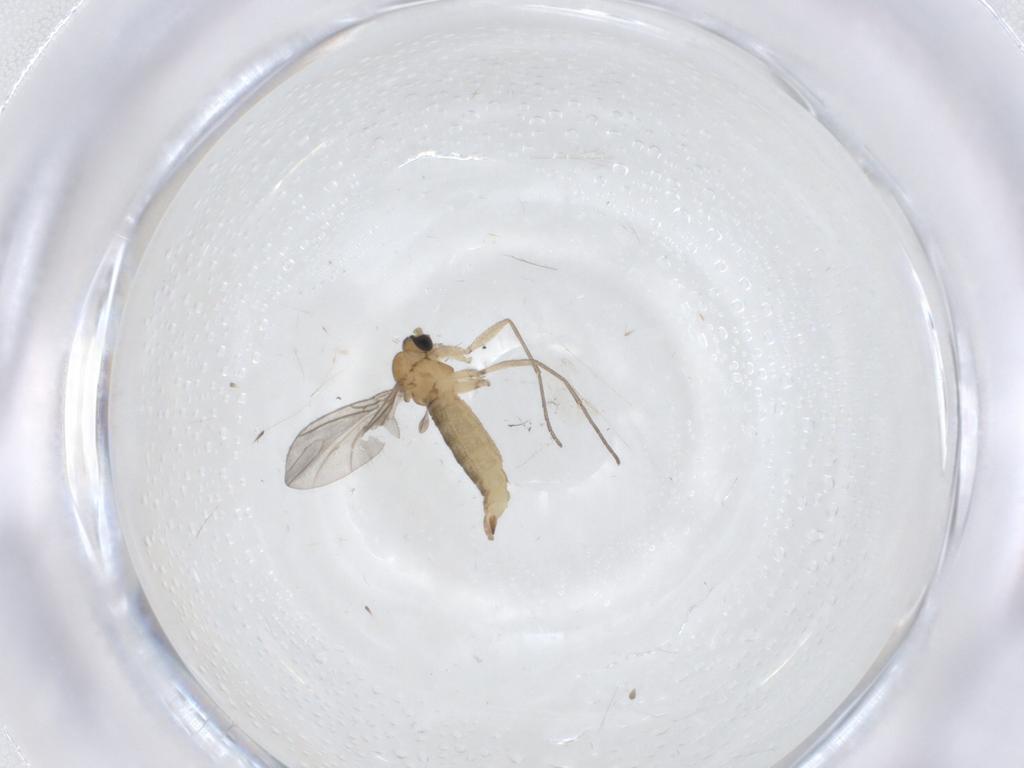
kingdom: Animalia
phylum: Arthropoda
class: Insecta
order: Diptera
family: Sciaridae
